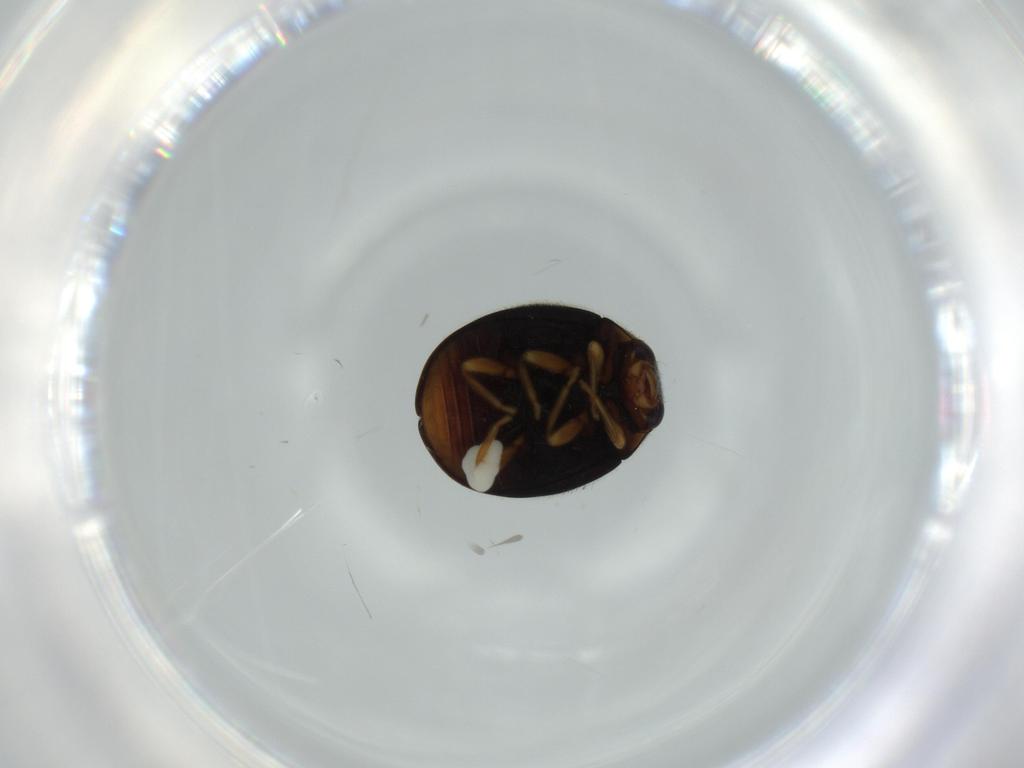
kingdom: Animalia
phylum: Arthropoda
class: Insecta
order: Coleoptera
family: Coccinellidae
